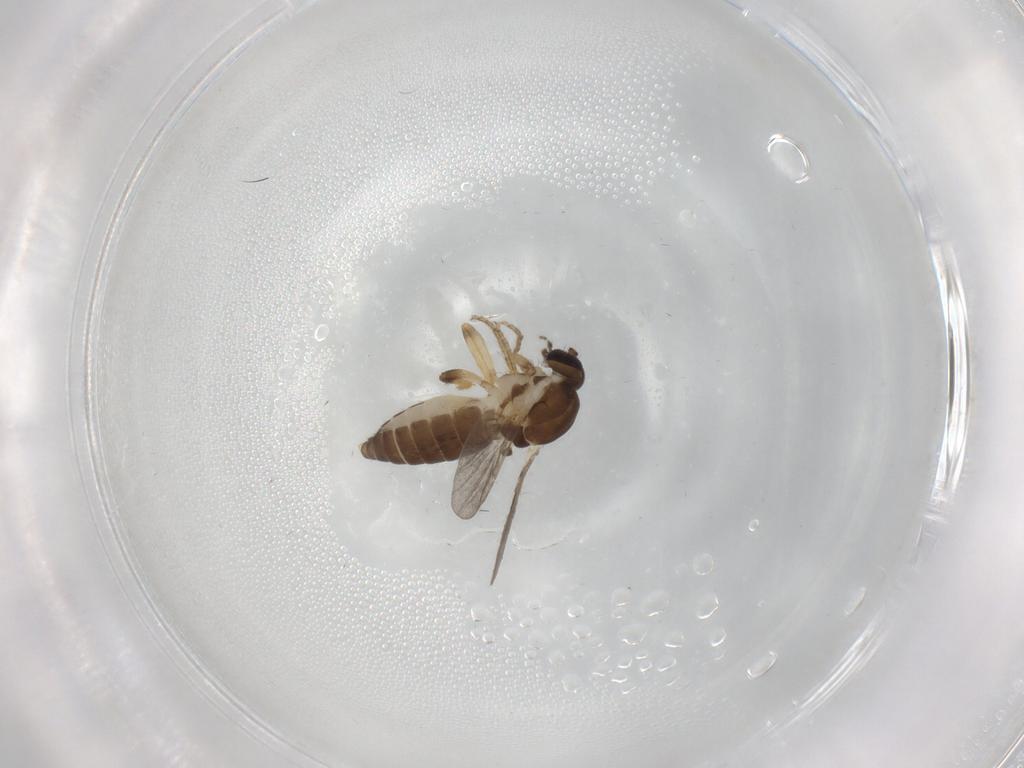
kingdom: Animalia
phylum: Arthropoda
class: Insecta
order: Diptera
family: Ceratopogonidae
